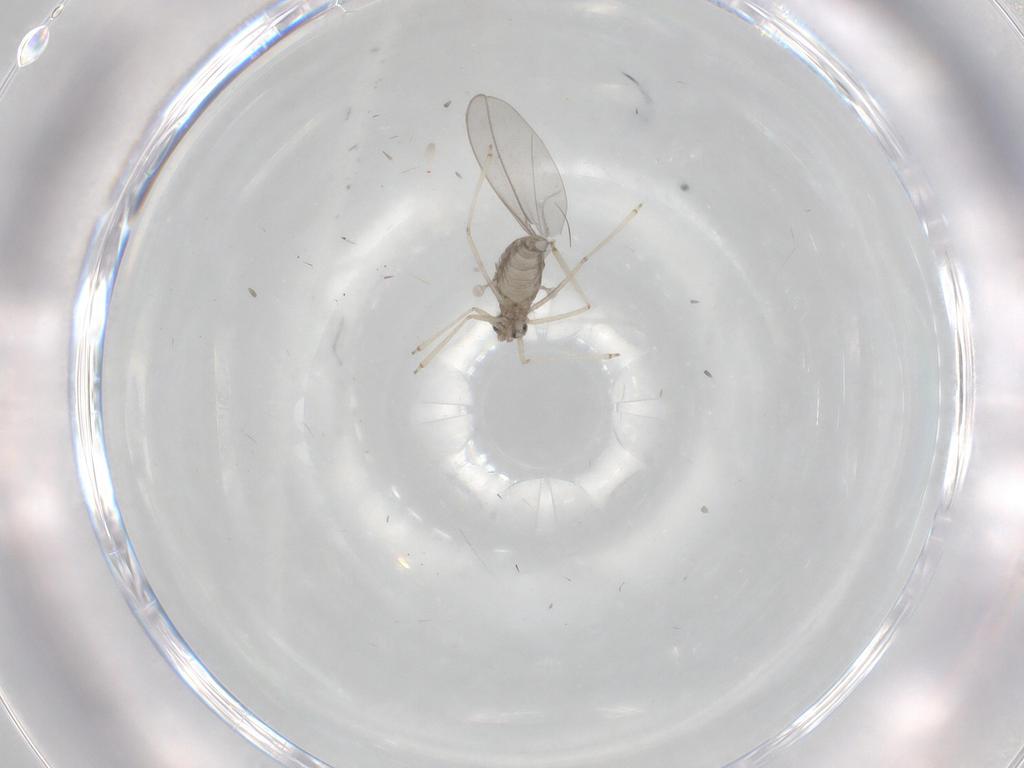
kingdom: Animalia
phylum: Arthropoda
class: Insecta
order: Diptera
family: Cecidomyiidae
